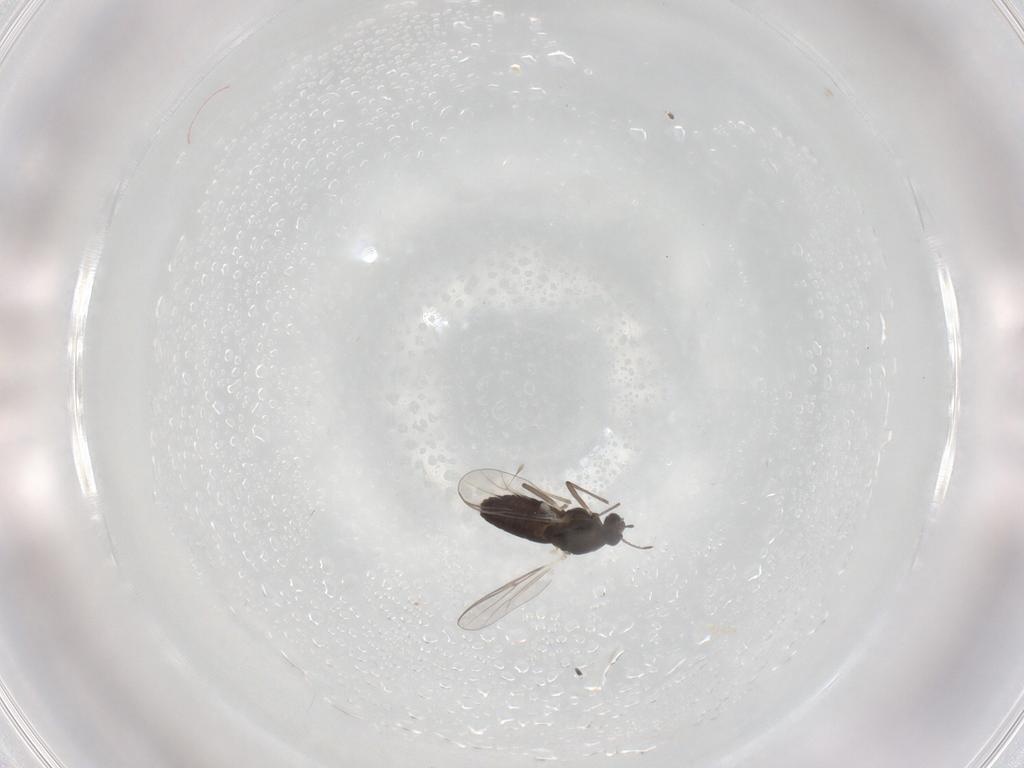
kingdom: Animalia
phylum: Arthropoda
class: Insecta
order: Diptera
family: Chironomidae
